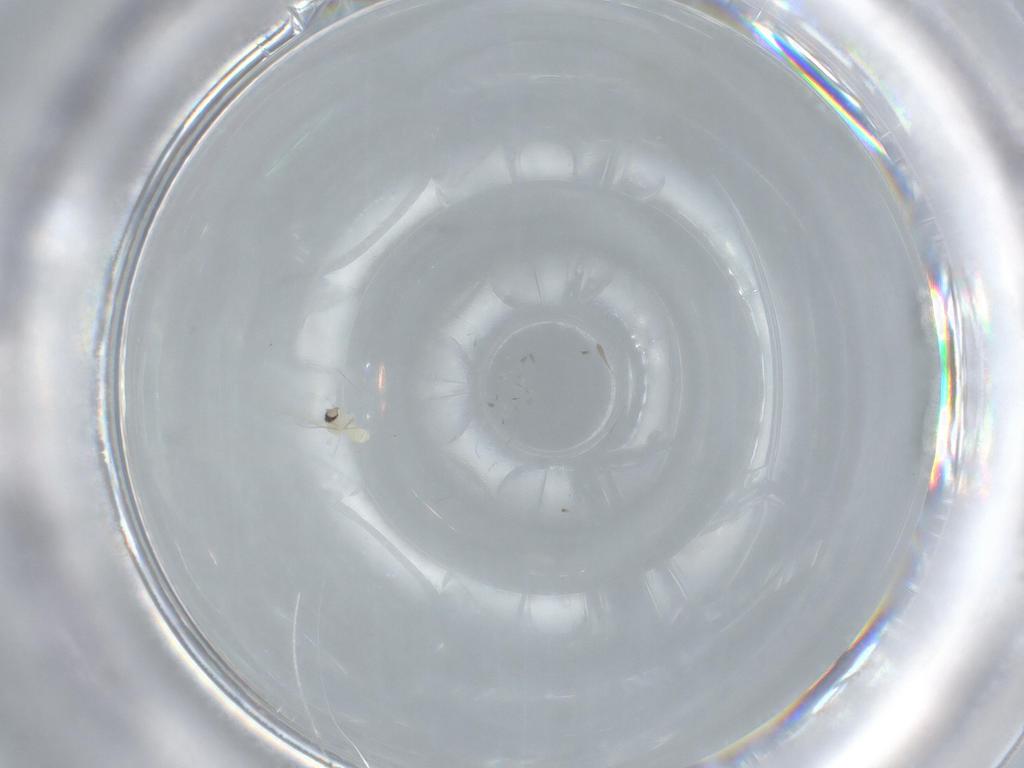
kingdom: Animalia
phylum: Arthropoda
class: Insecta
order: Diptera
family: Cecidomyiidae
